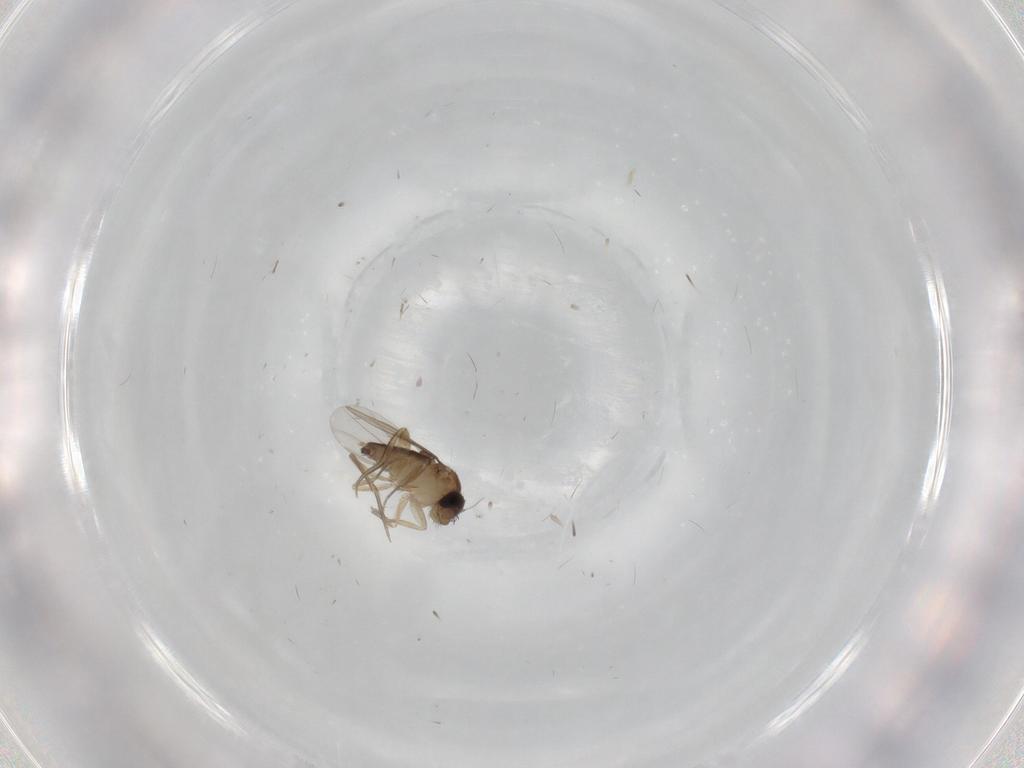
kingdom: Animalia
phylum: Arthropoda
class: Insecta
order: Diptera
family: Phoridae
